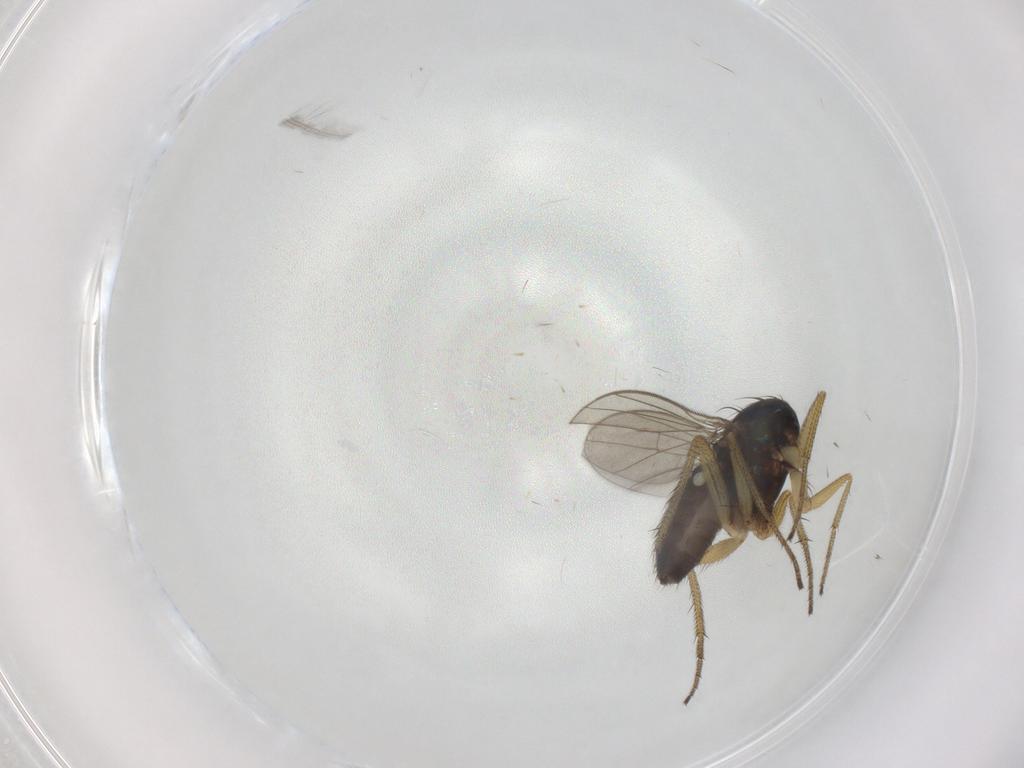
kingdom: Animalia
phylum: Arthropoda
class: Insecta
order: Diptera
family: Dolichopodidae
